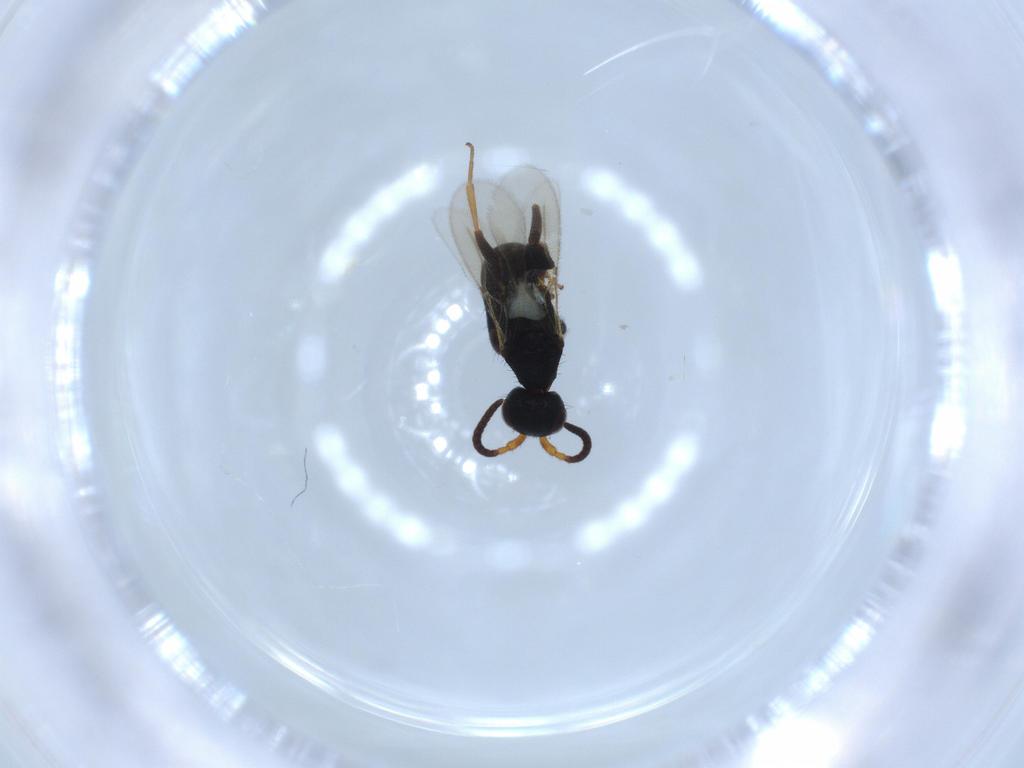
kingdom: Animalia
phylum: Arthropoda
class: Insecta
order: Hymenoptera
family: Bethylidae
